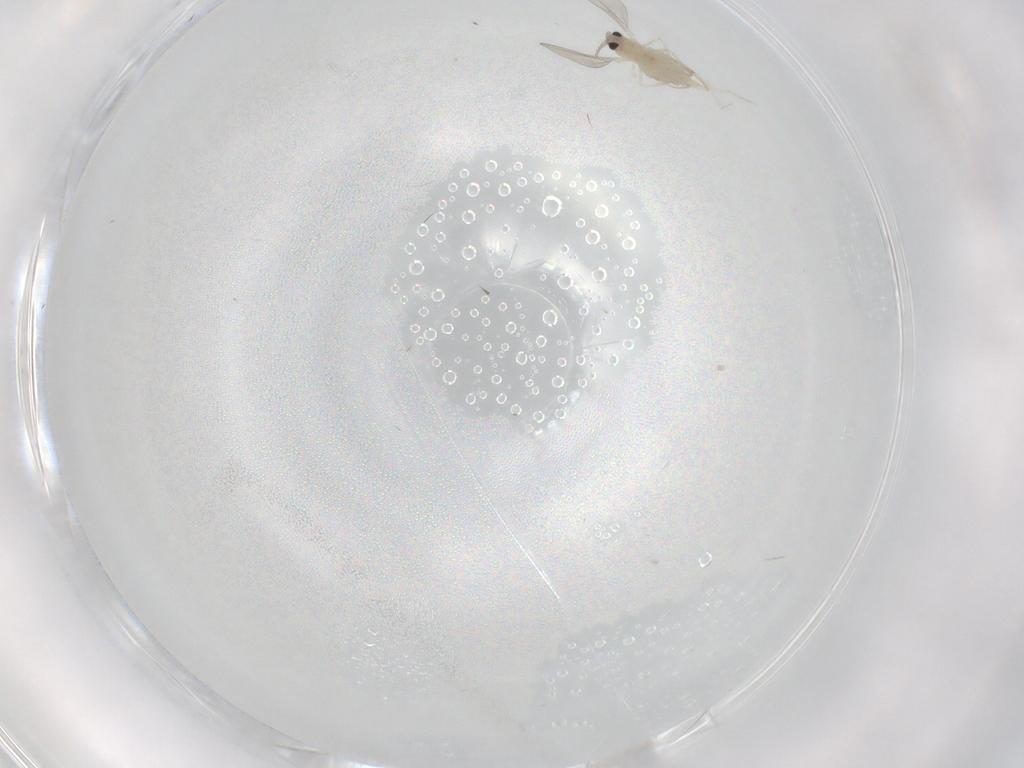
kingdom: Animalia
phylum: Arthropoda
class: Insecta
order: Diptera
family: Cecidomyiidae
